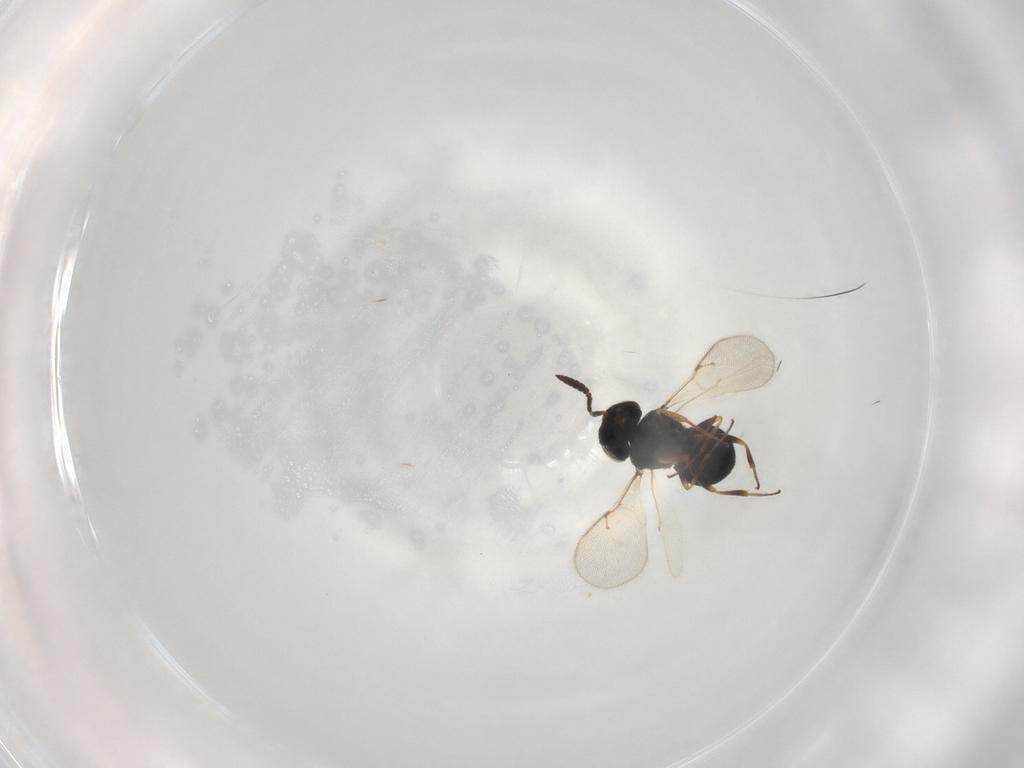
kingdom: Animalia
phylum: Arthropoda
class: Insecta
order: Hymenoptera
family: Scelionidae
